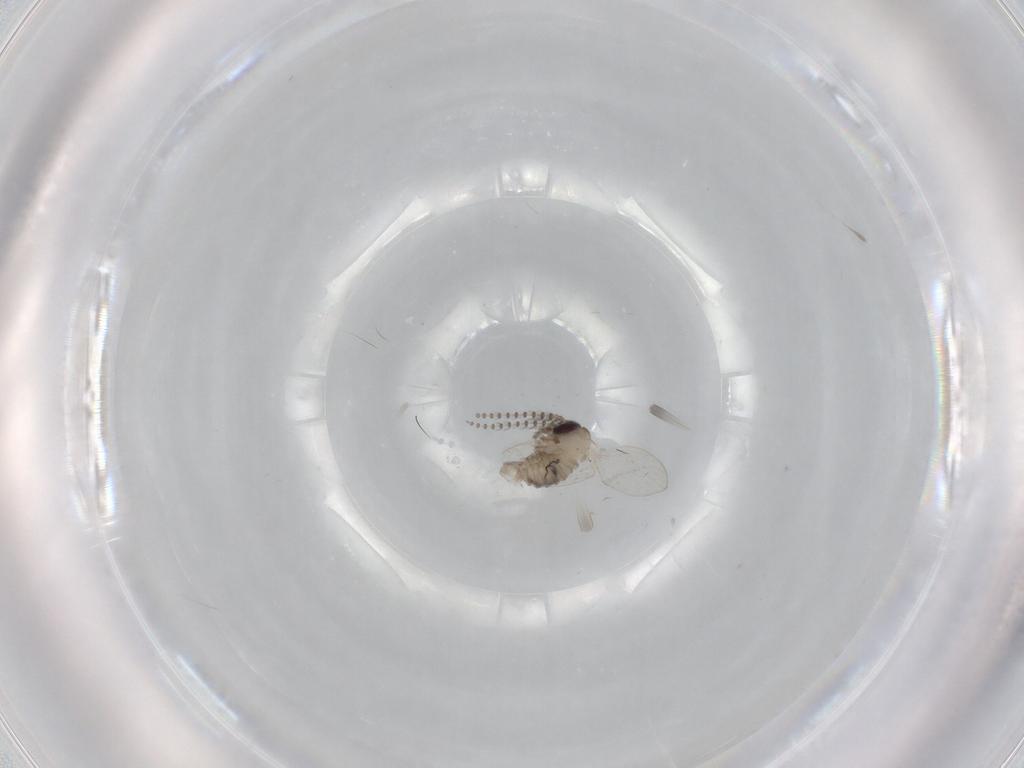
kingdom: Animalia
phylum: Arthropoda
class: Insecta
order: Diptera
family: Psychodidae
